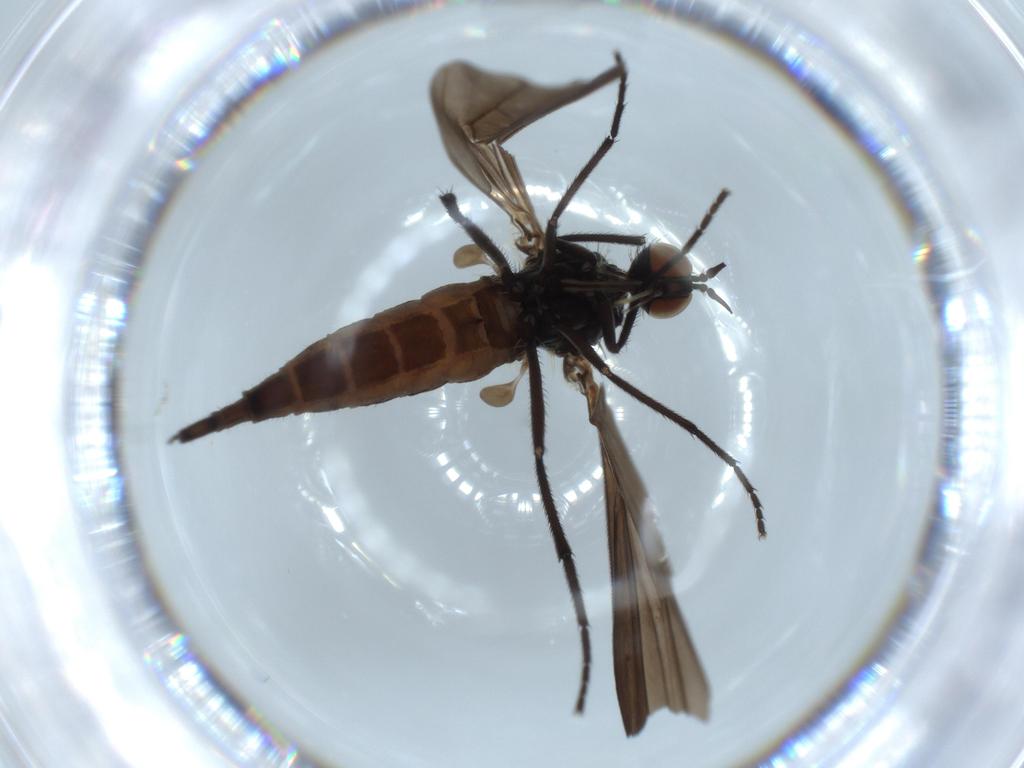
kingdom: Animalia
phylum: Arthropoda
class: Insecta
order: Diptera
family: Empididae
